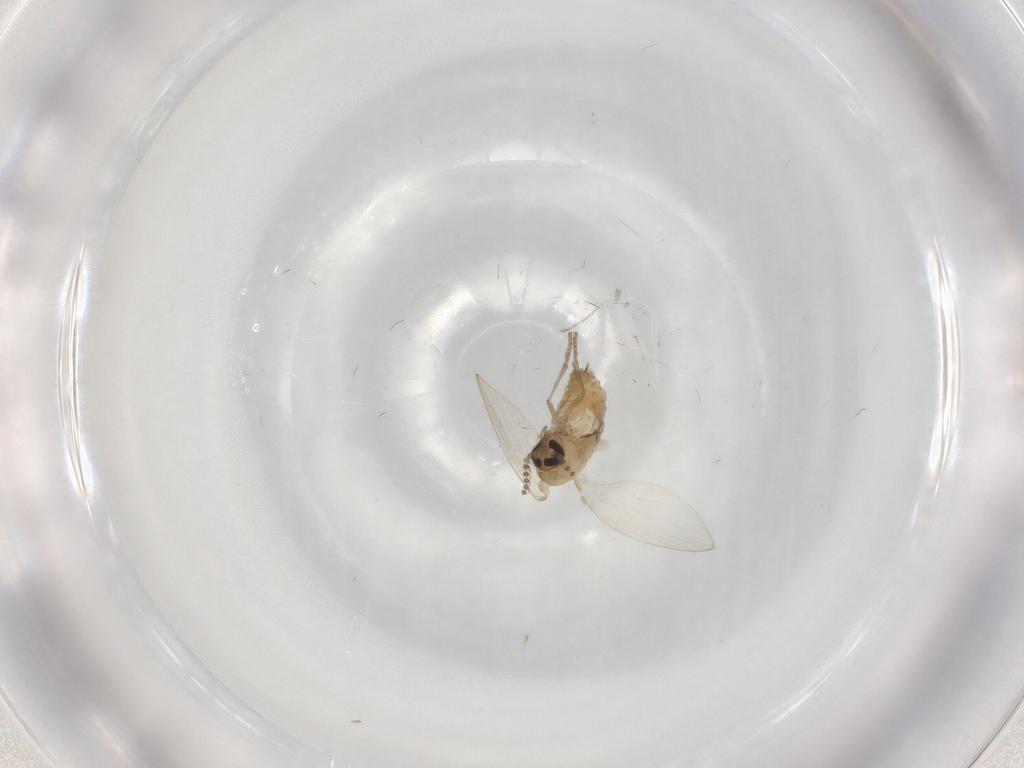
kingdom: Animalia
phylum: Arthropoda
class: Insecta
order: Diptera
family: Psychodidae
